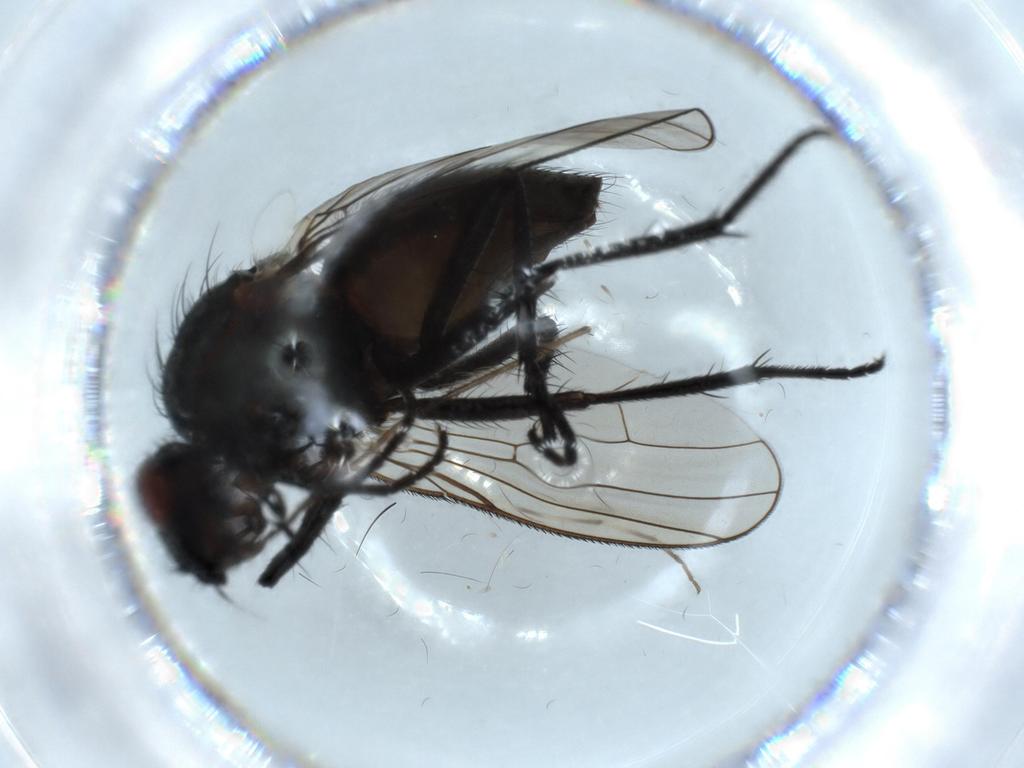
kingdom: Animalia
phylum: Arthropoda
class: Insecta
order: Diptera
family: Anthomyiidae
